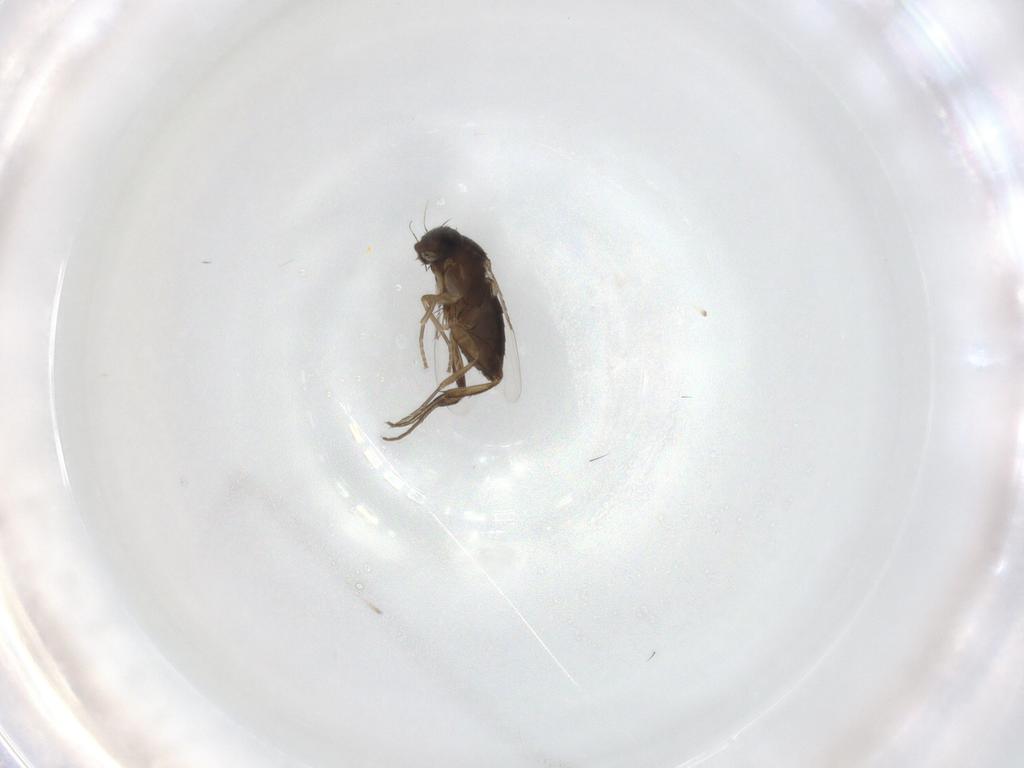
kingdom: Animalia
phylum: Arthropoda
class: Insecta
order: Diptera
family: Phoridae
